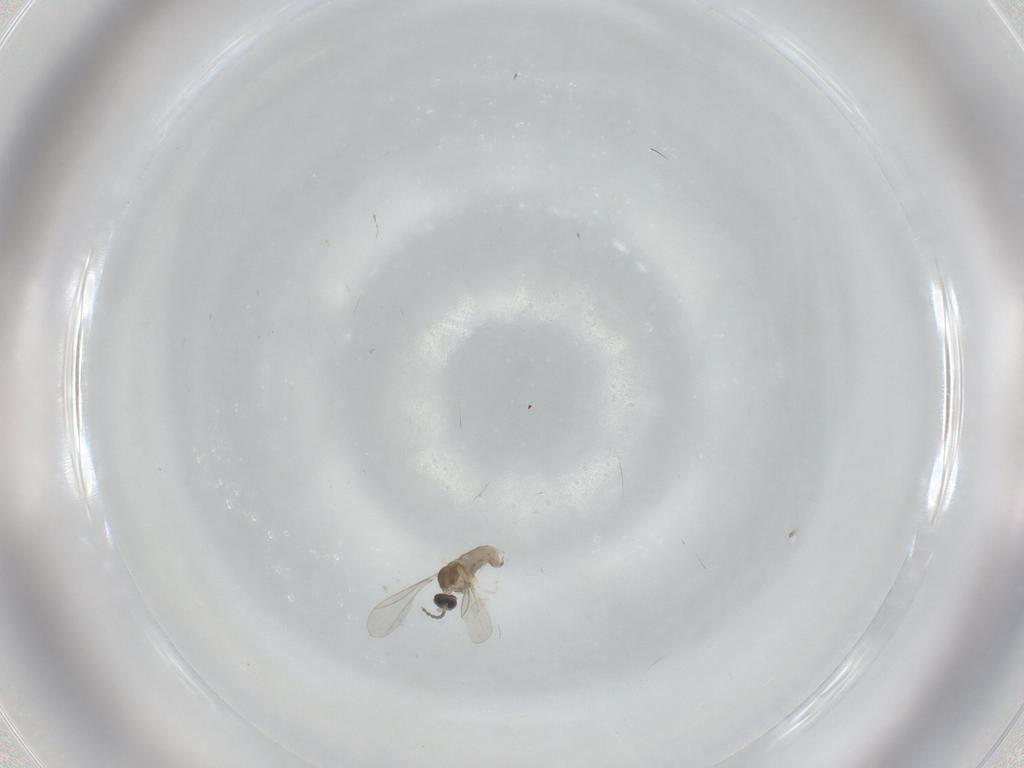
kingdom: Animalia
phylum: Arthropoda
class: Insecta
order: Diptera
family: Cecidomyiidae
